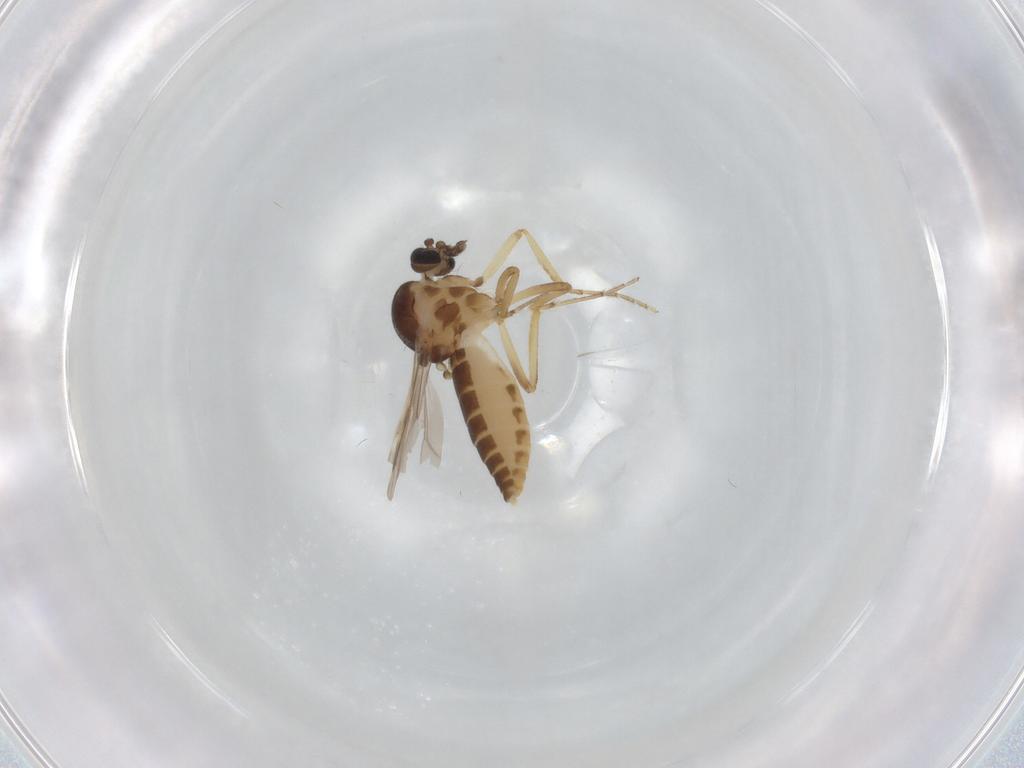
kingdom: Animalia
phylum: Arthropoda
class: Insecta
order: Diptera
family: Ceratopogonidae
